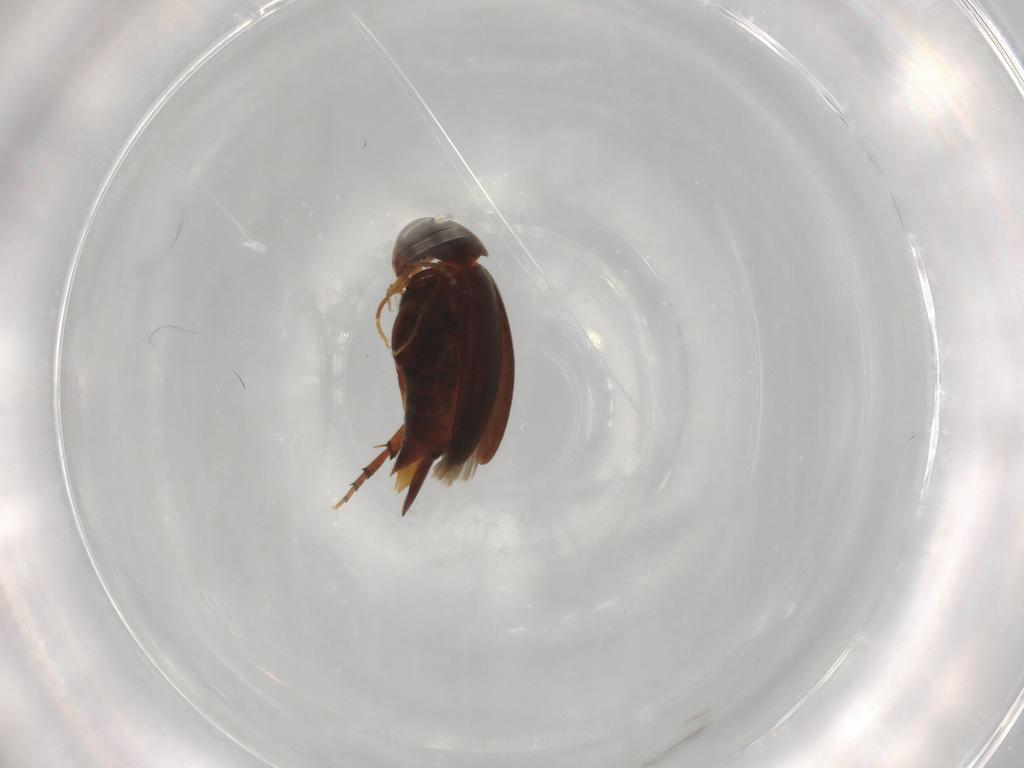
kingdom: Animalia
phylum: Arthropoda
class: Insecta
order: Coleoptera
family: Mordellidae
